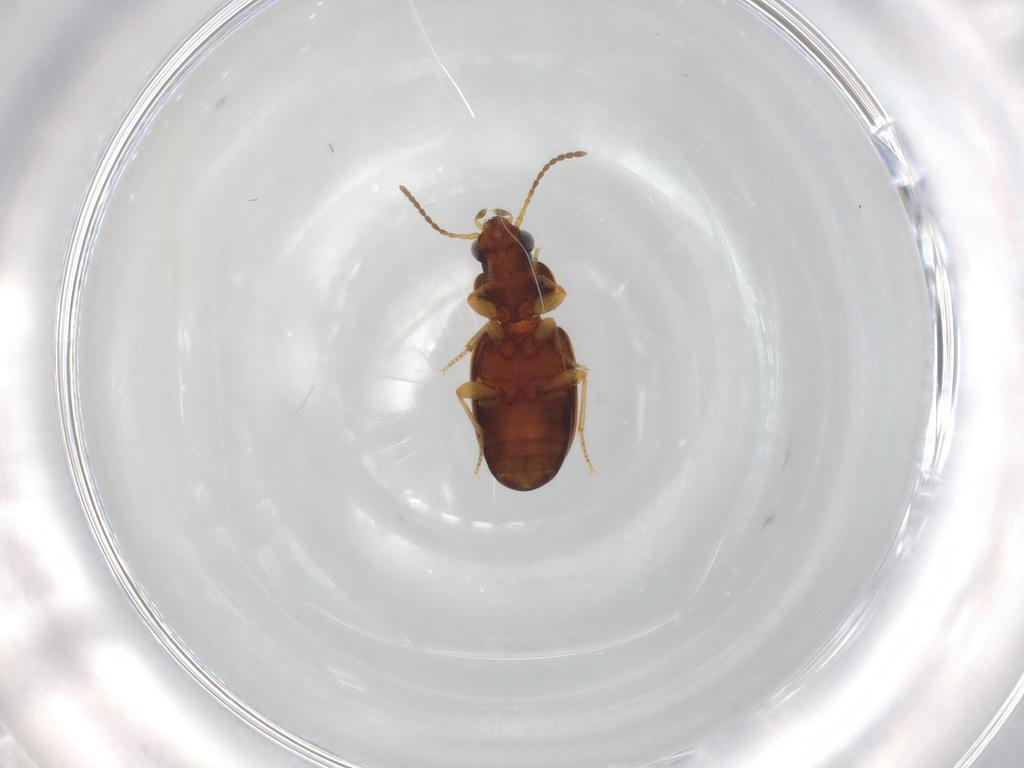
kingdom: Animalia
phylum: Arthropoda
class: Insecta
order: Coleoptera
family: Carabidae
